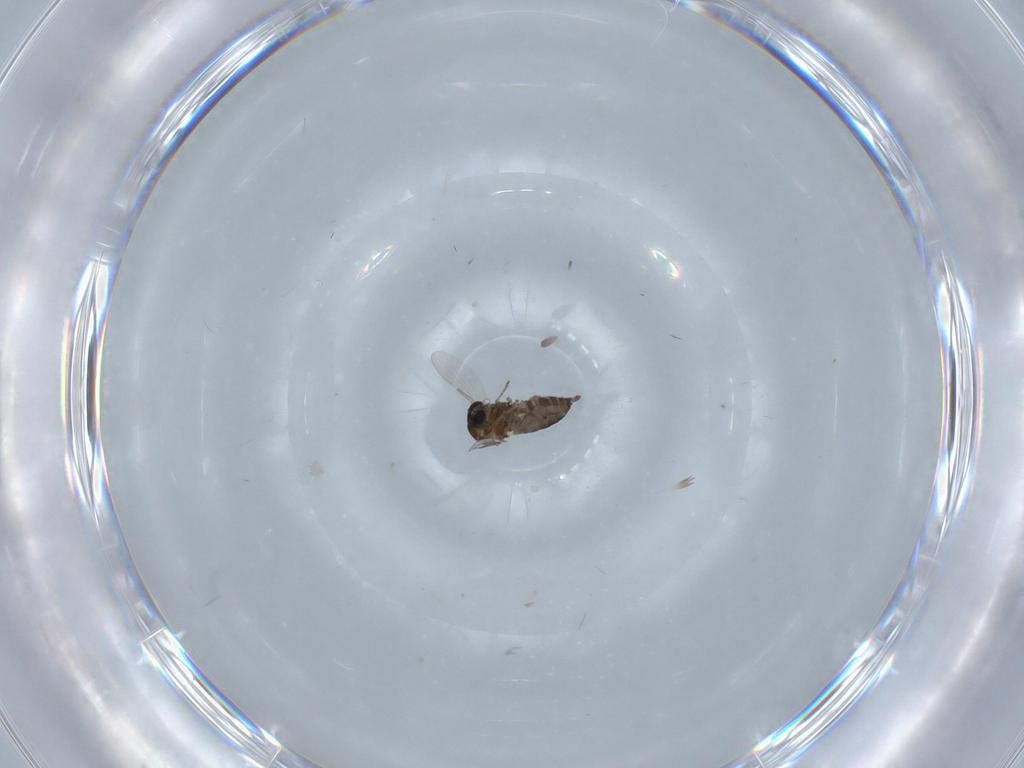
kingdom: Animalia
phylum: Arthropoda
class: Insecta
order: Diptera
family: Ceratopogonidae
